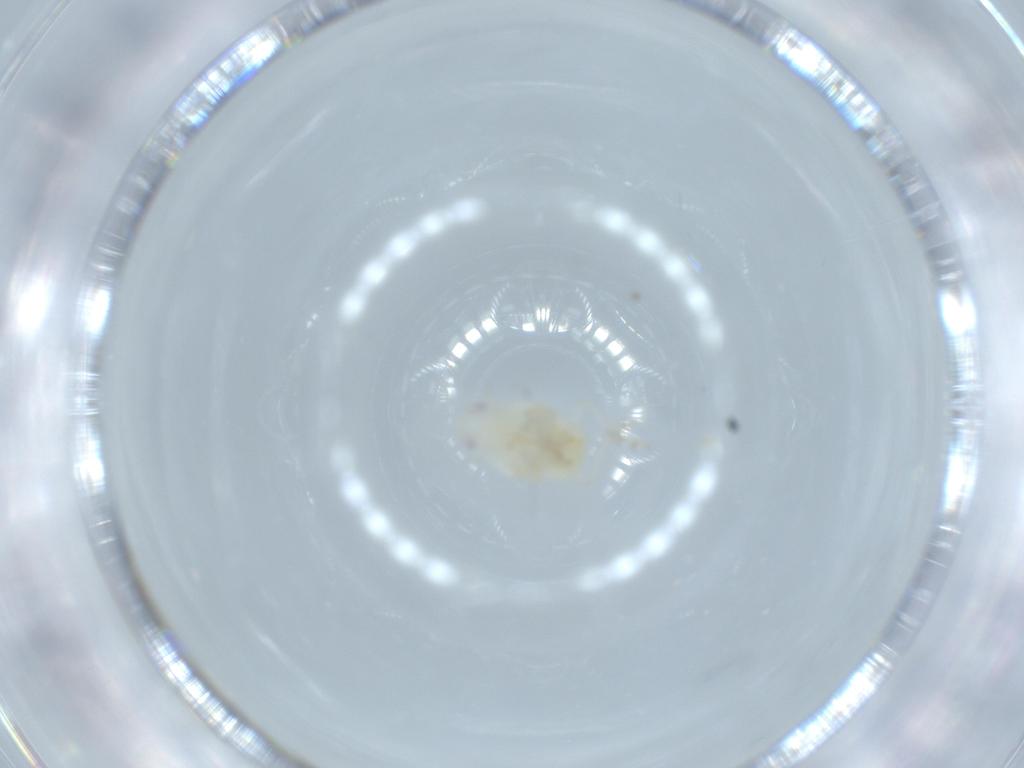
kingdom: Animalia
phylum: Arthropoda
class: Insecta
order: Hemiptera
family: Flatidae
